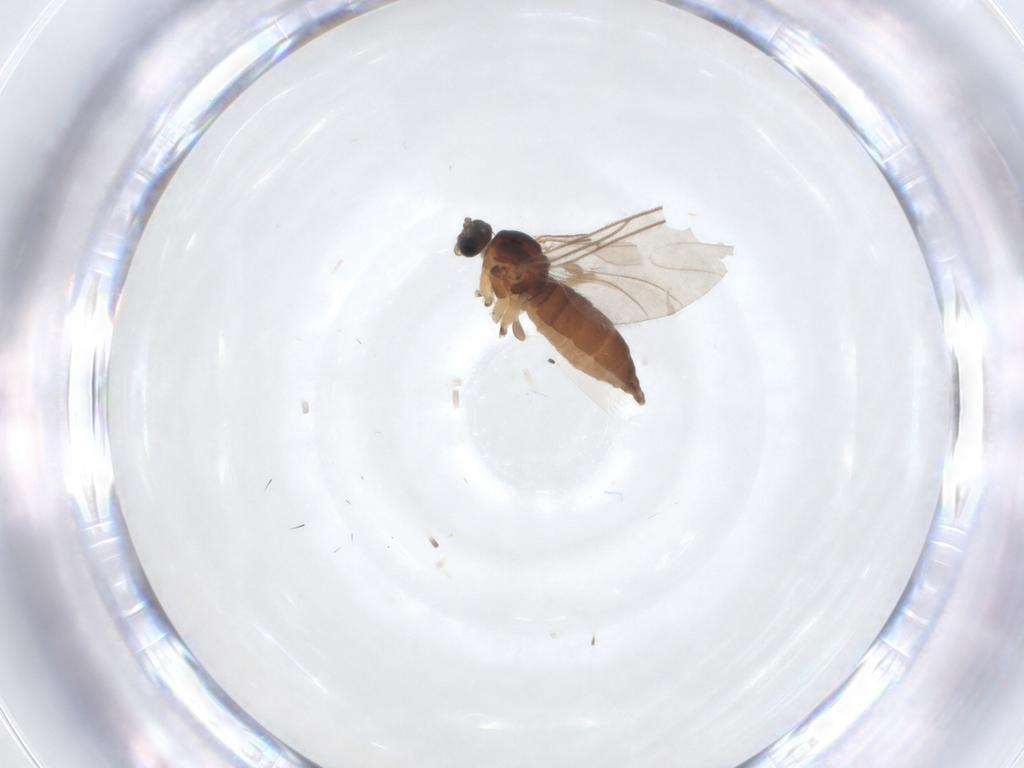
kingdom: Animalia
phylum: Arthropoda
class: Insecta
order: Diptera
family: Sciaridae
